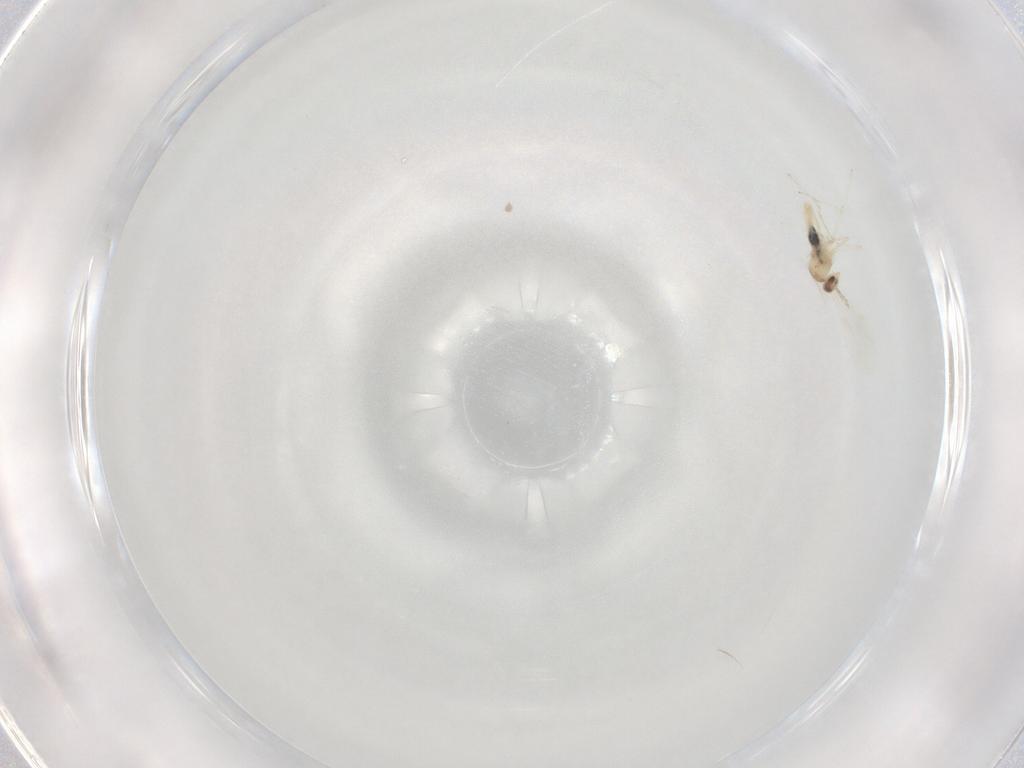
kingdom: Animalia
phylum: Arthropoda
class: Insecta
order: Diptera
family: Cecidomyiidae
